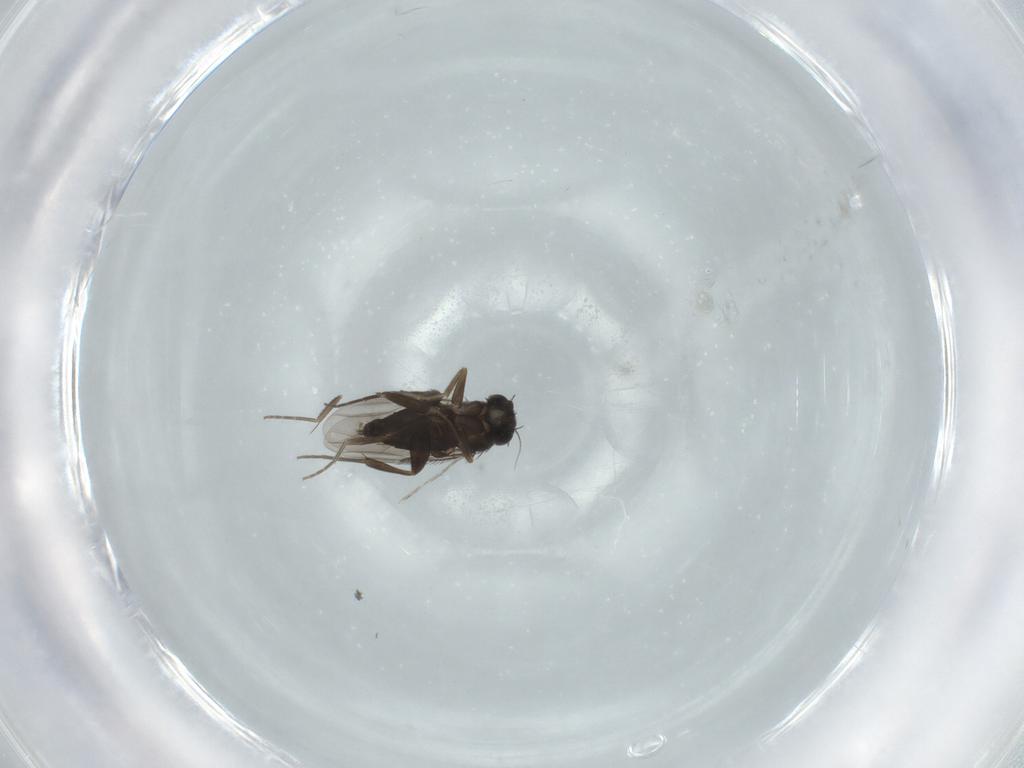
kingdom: Animalia
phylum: Arthropoda
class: Insecta
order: Diptera
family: Phoridae
